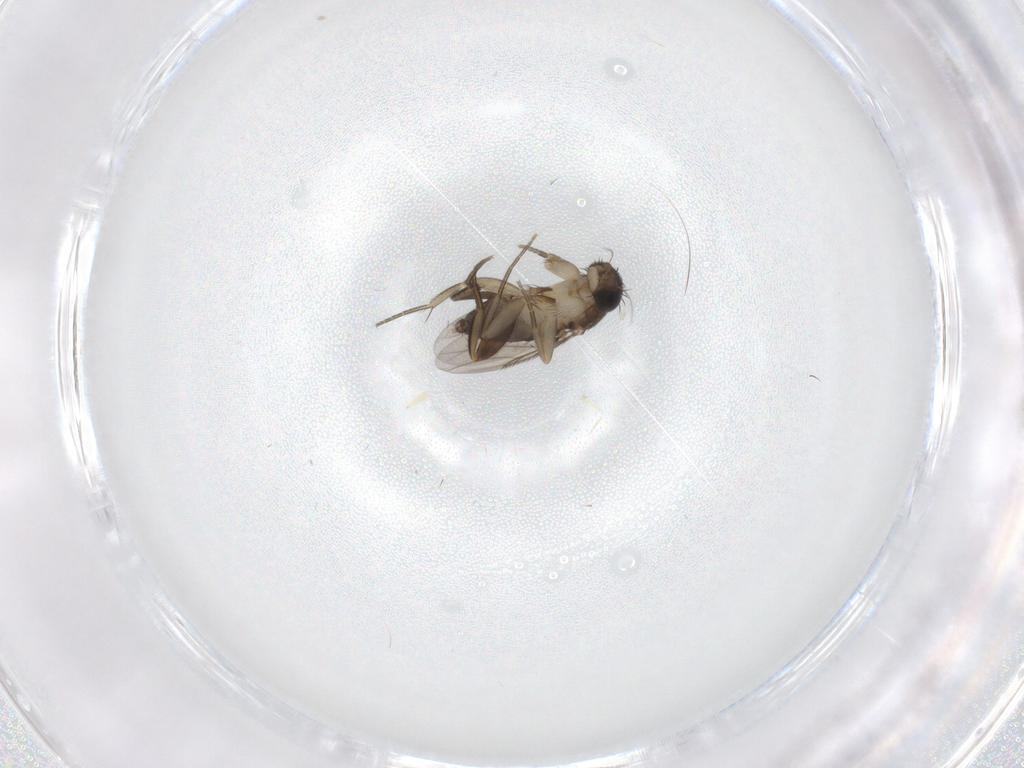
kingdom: Animalia
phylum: Arthropoda
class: Insecta
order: Diptera
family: Phoridae
